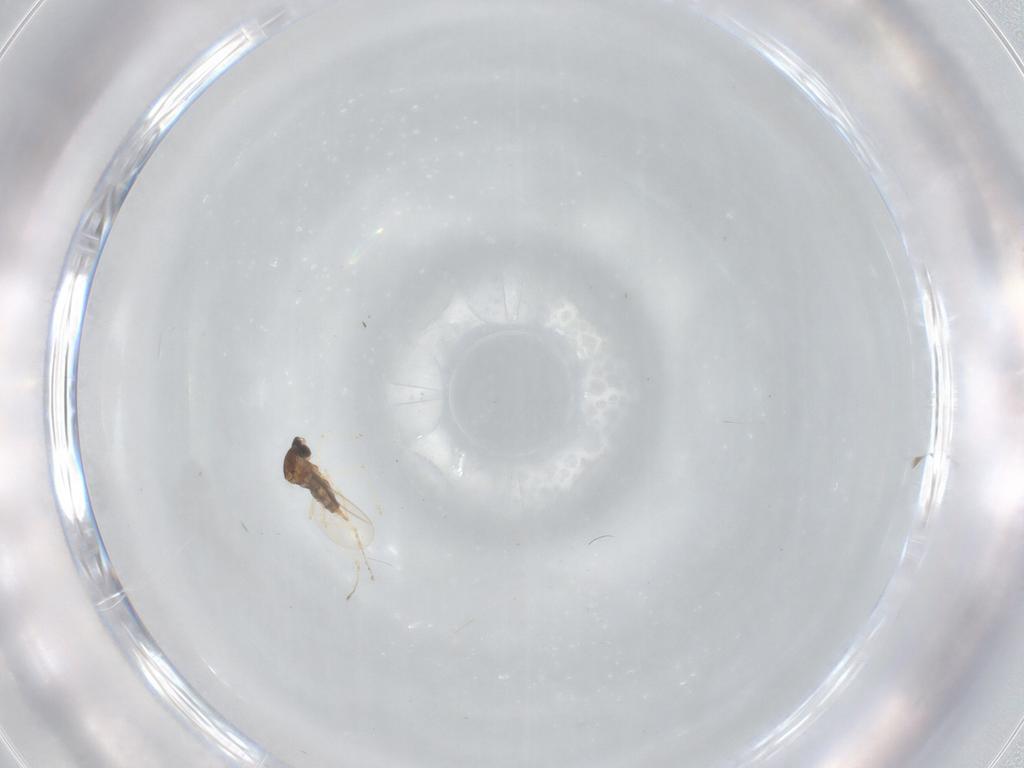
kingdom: Animalia
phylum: Arthropoda
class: Insecta
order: Diptera
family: Cecidomyiidae
